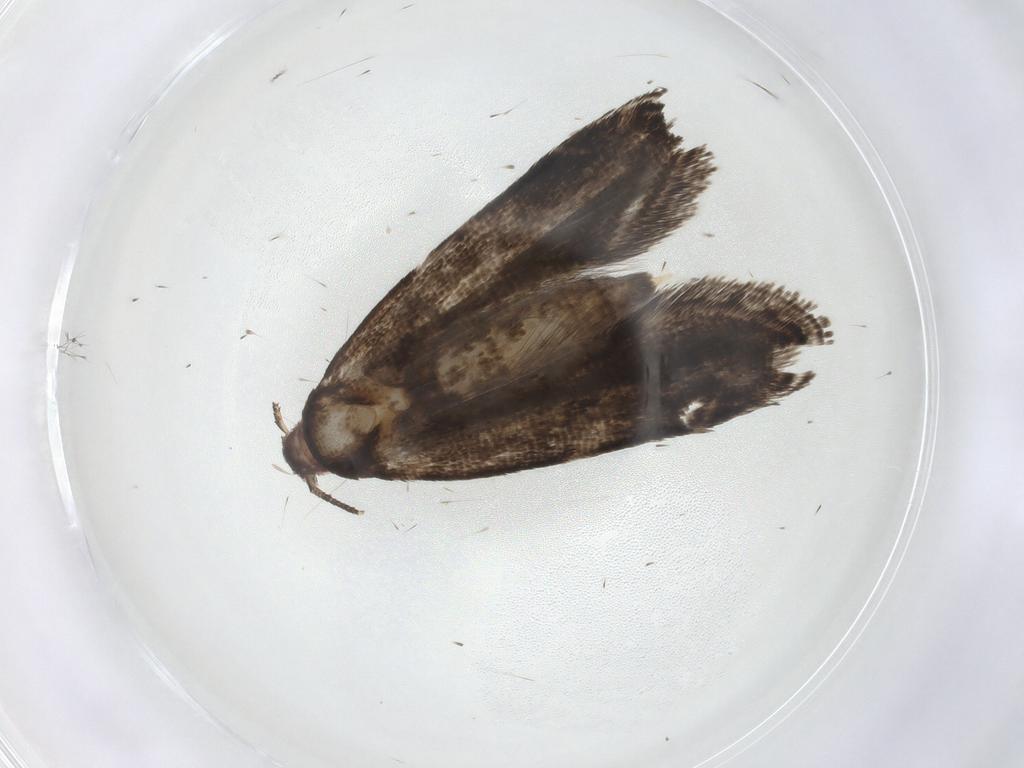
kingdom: Animalia
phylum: Arthropoda
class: Insecta
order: Lepidoptera
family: Gelechiidae
